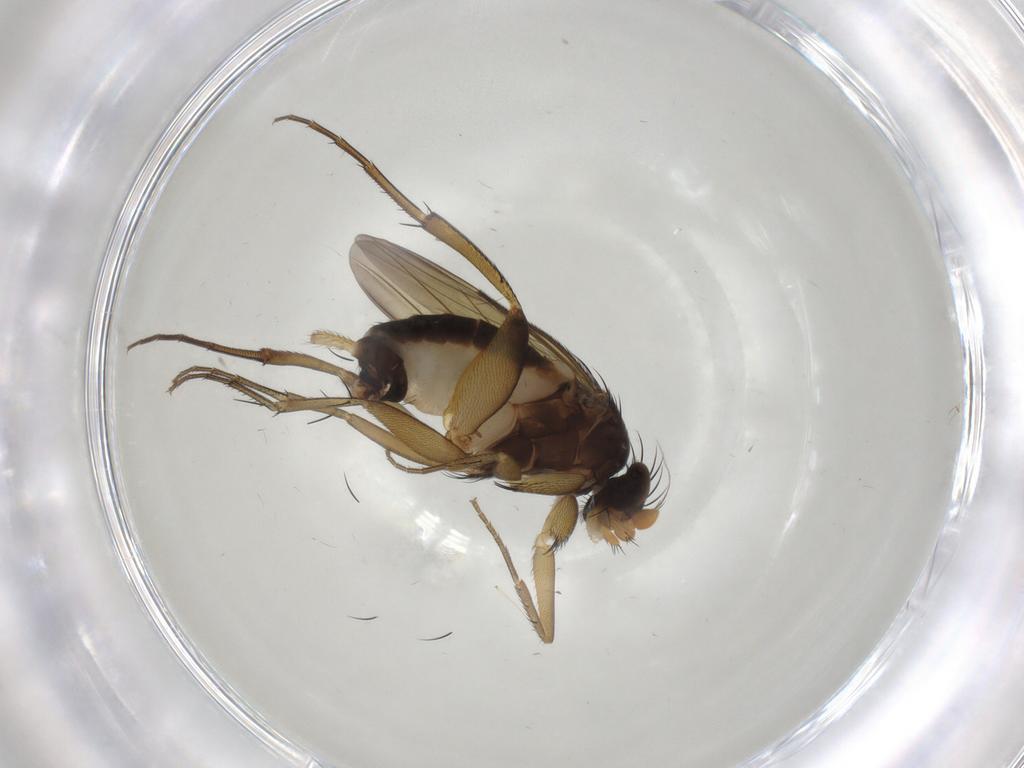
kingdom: Animalia
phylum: Arthropoda
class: Insecta
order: Diptera
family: Phoridae
